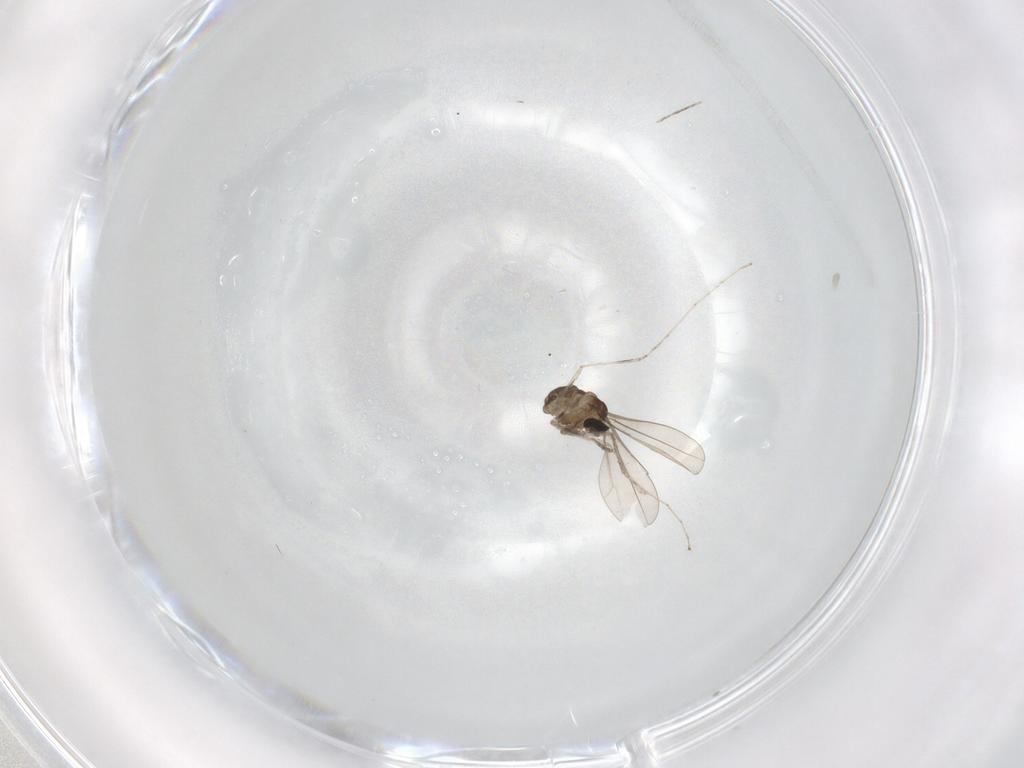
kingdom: Animalia
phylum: Arthropoda
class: Insecta
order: Diptera
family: Cecidomyiidae
